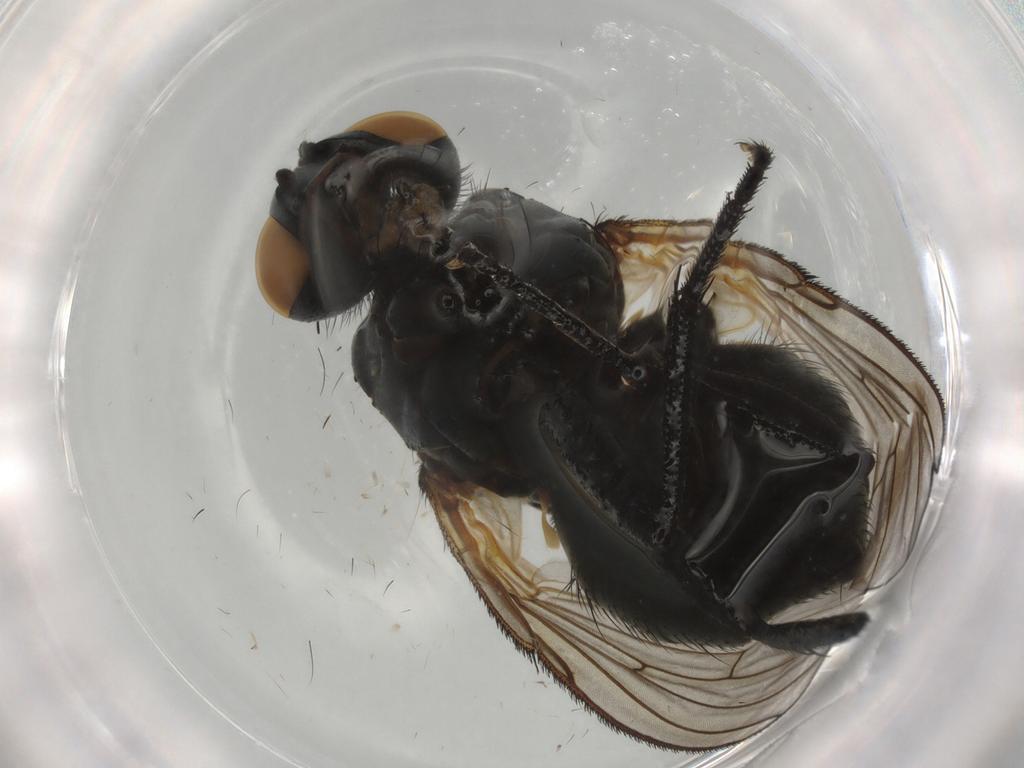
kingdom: Animalia
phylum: Arthropoda
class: Insecta
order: Diptera
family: Muscidae
